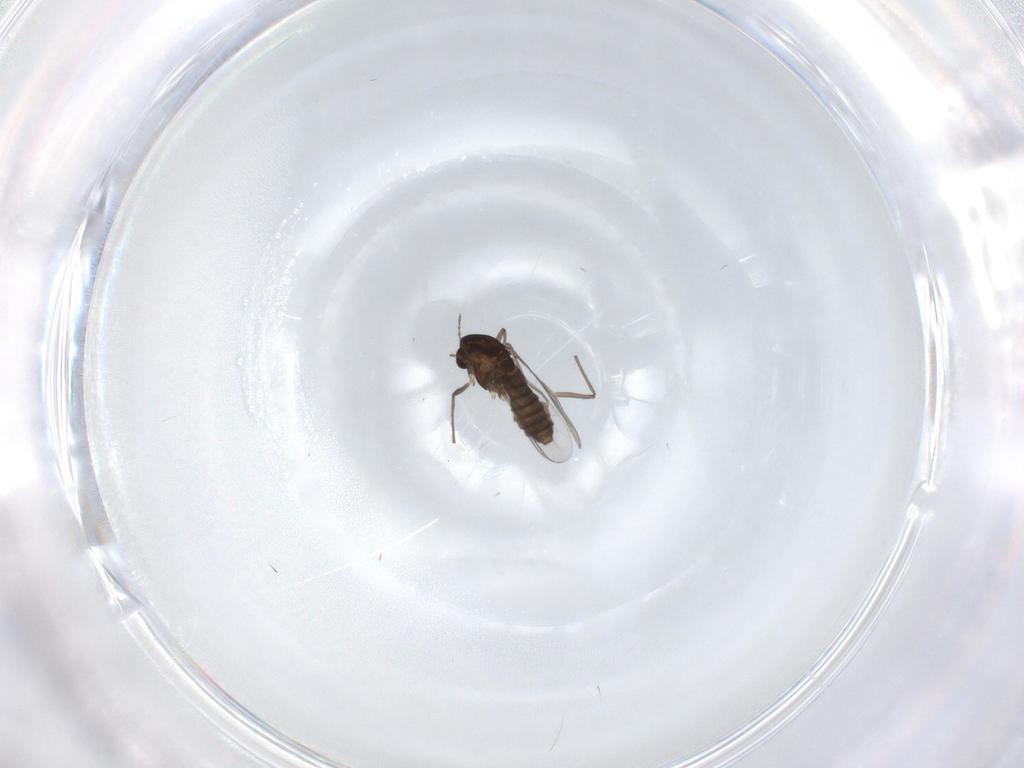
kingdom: Animalia
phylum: Arthropoda
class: Insecta
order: Diptera
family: Chironomidae
